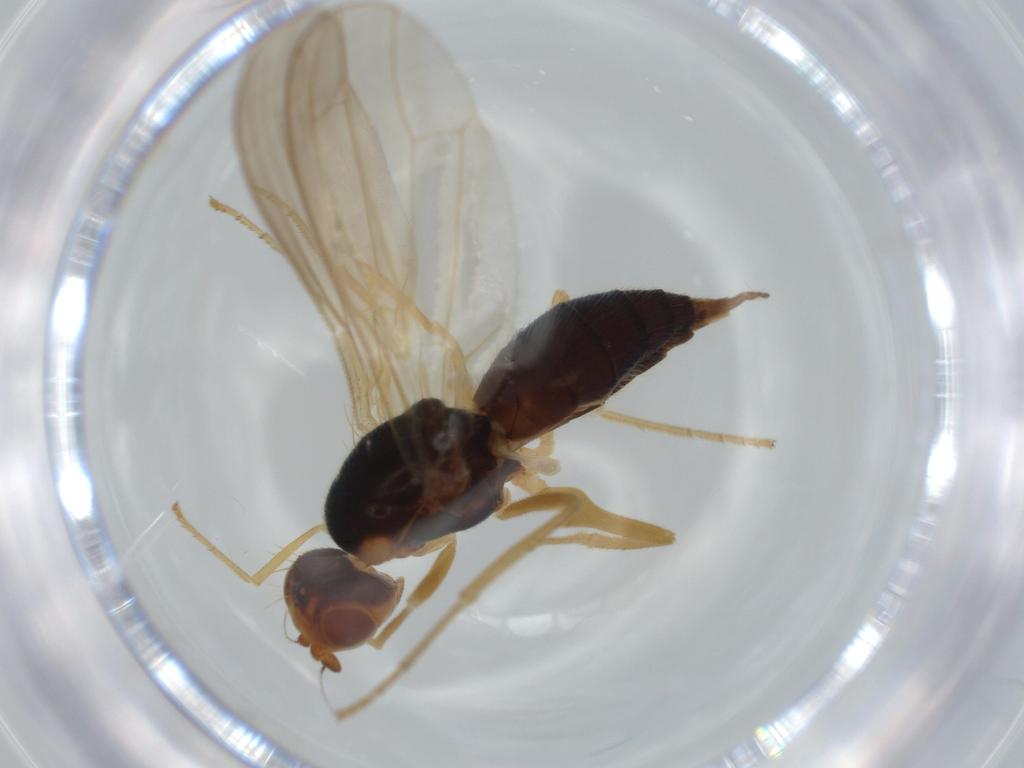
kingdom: Animalia
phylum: Arthropoda
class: Insecta
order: Diptera
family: Psilidae
